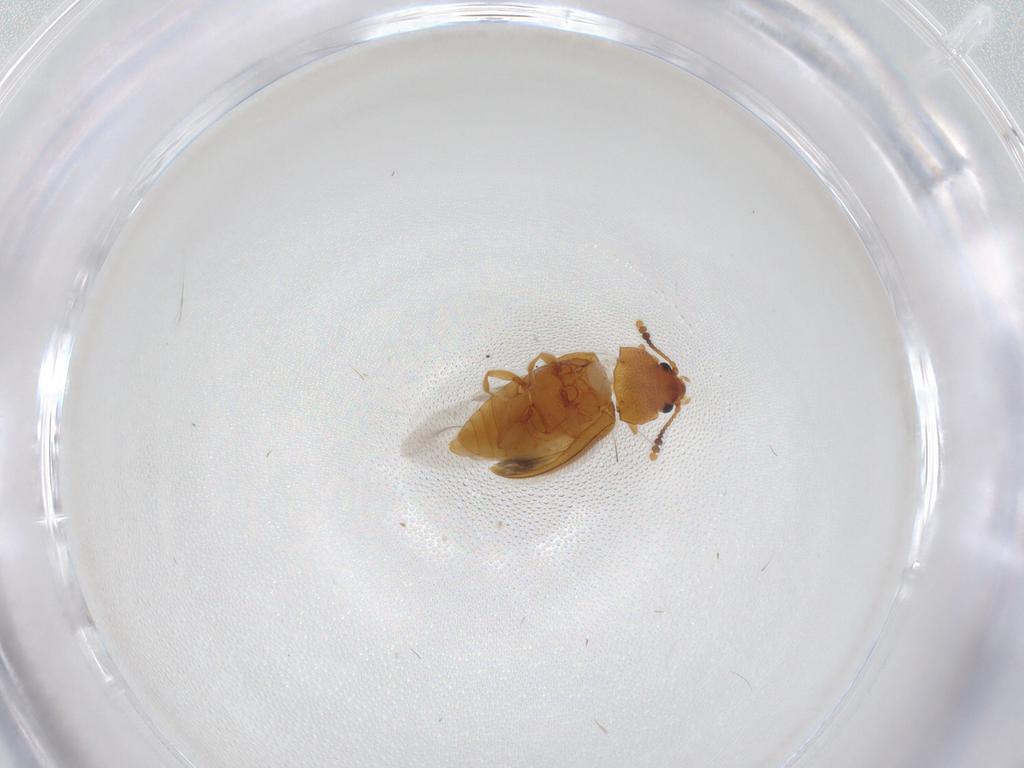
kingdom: Animalia
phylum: Arthropoda
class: Insecta
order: Coleoptera
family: Erotylidae
